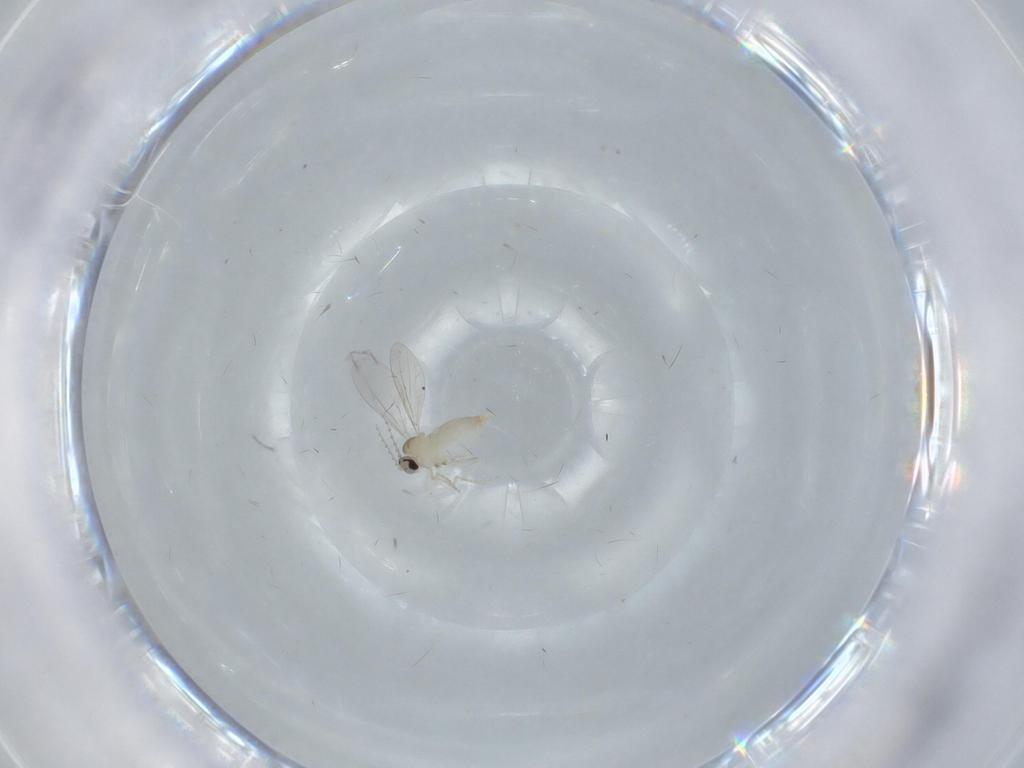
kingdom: Animalia
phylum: Arthropoda
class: Insecta
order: Diptera
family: Cecidomyiidae
